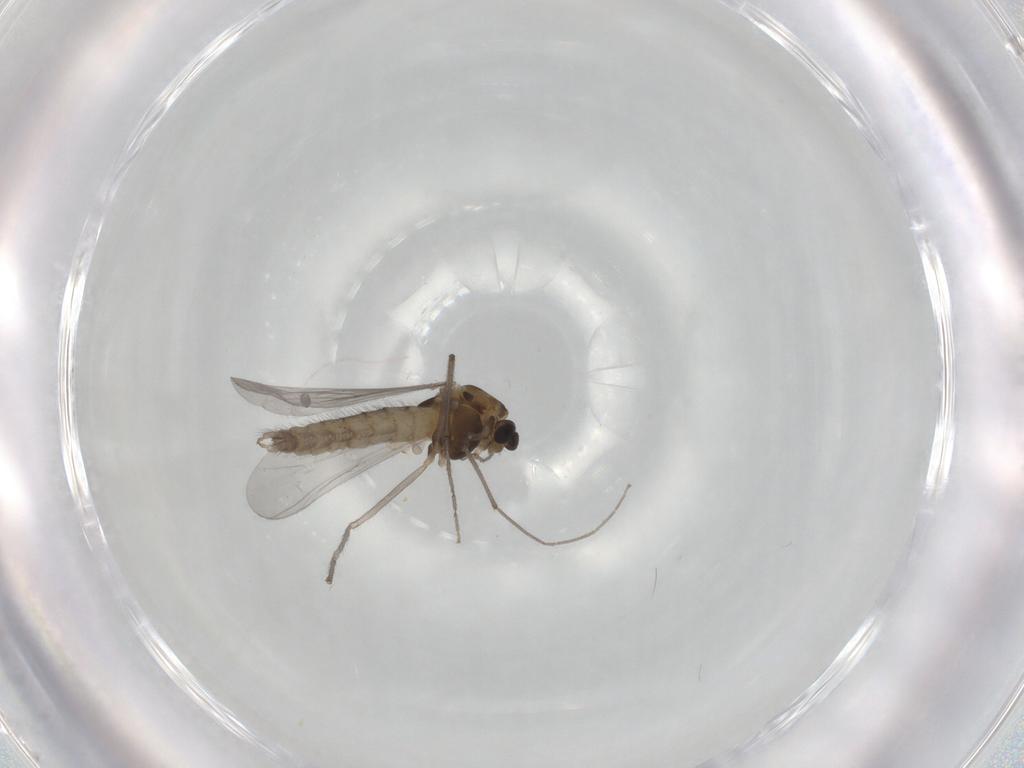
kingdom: Animalia
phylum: Arthropoda
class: Insecta
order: Diptera
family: Chironomidae
